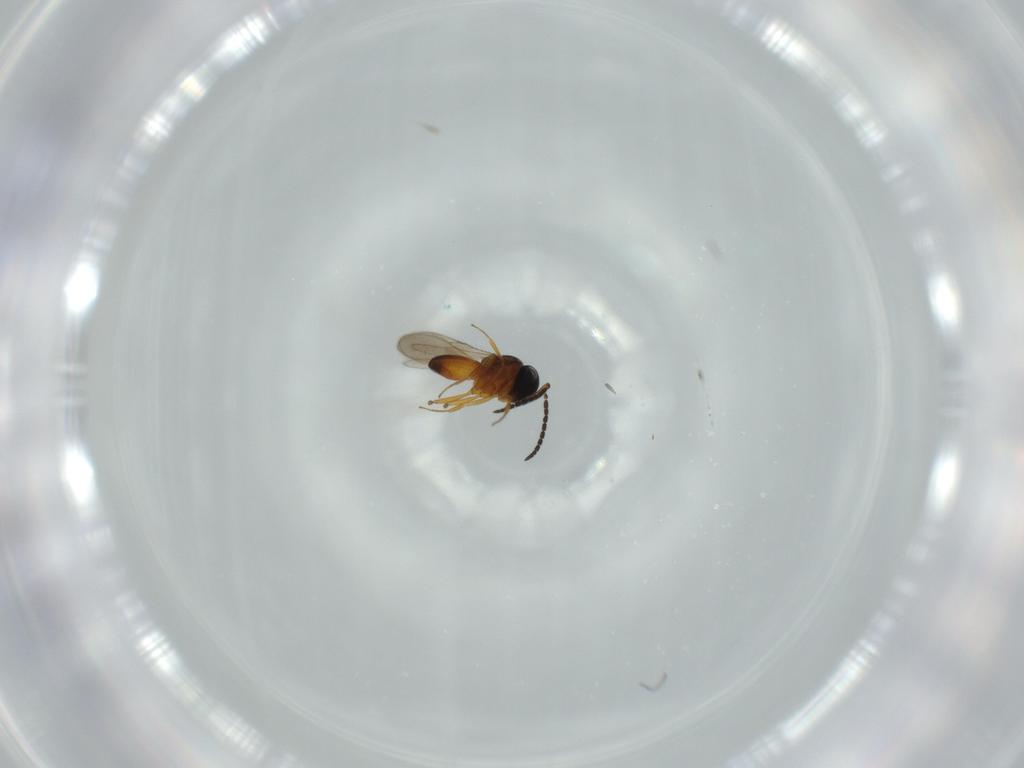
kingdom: Animalia
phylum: Arthropoda
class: Insecta
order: Hymenoptera
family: Scelionidae
